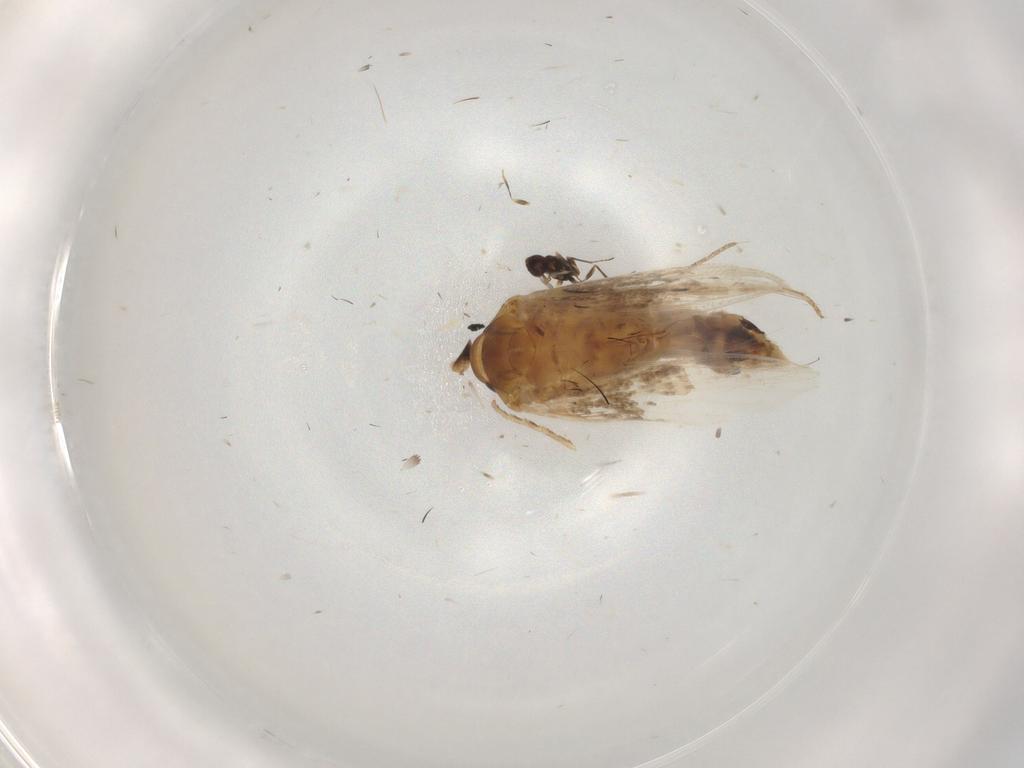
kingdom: Animalia
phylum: Arthropoda
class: Insecta
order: Hymenoptera
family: Mymaridae
